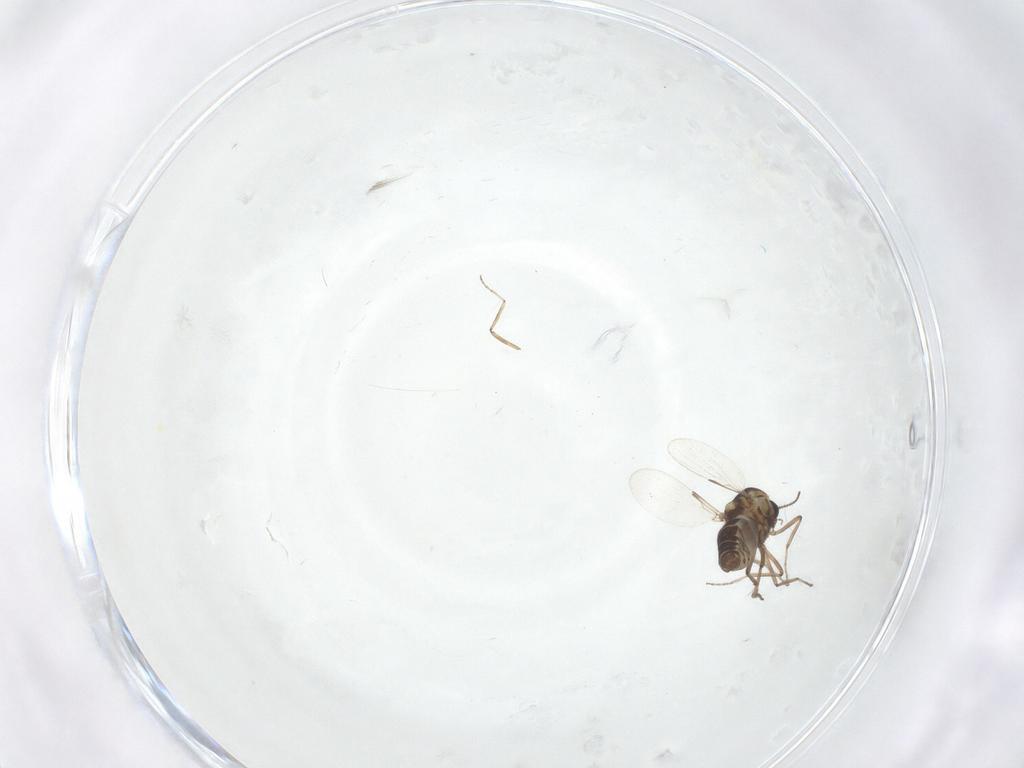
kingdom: Animalia
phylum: Arthropoda
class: Insecta
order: Diptera
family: Ceratopogonidae
